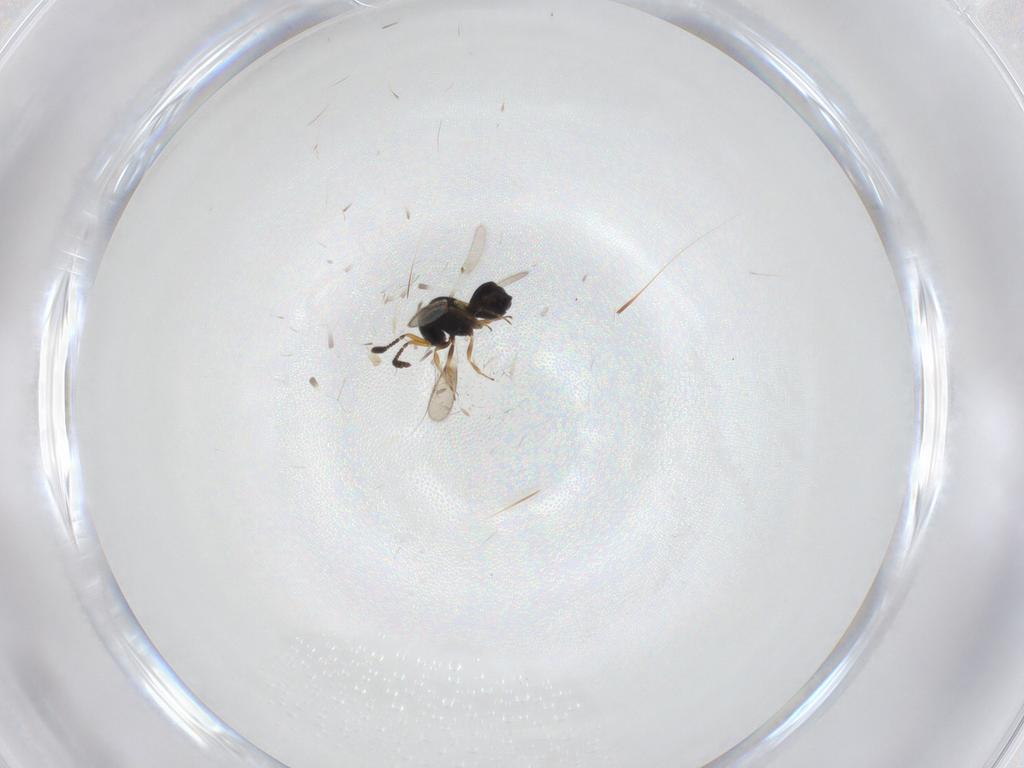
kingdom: Animalia
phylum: Arthropoda
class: Insecta
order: Hymenoptera
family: Scelionidae
